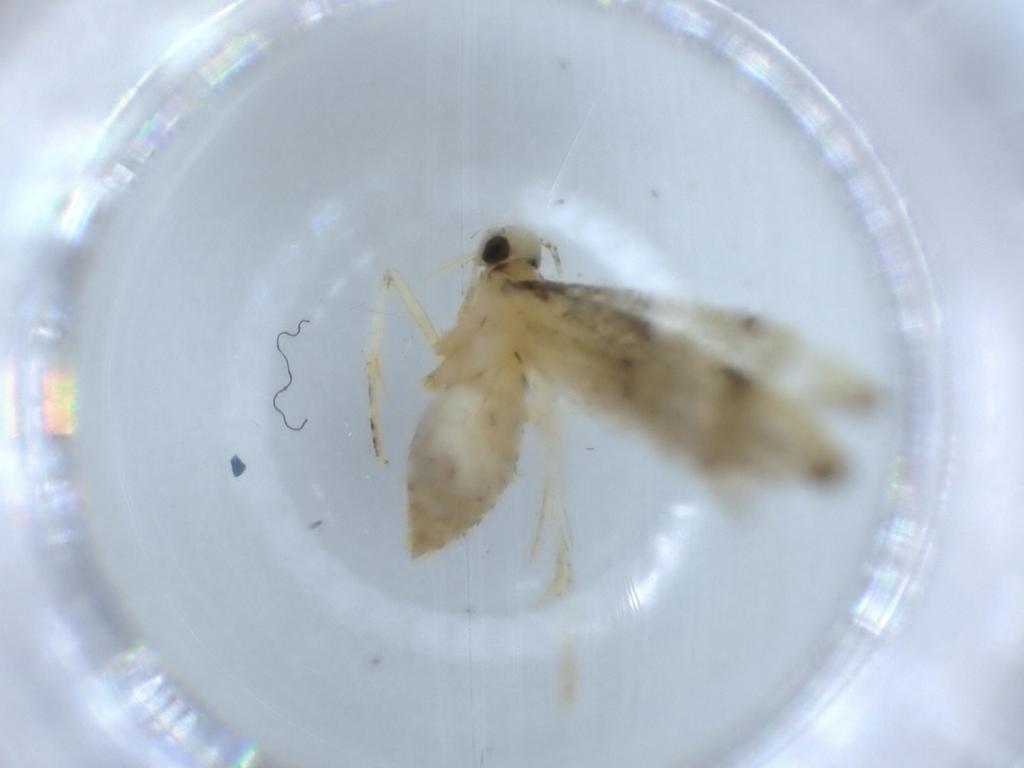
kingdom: Animalia
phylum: Arthropoda
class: Insecta
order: Lepidoptera
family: Autostichidae
